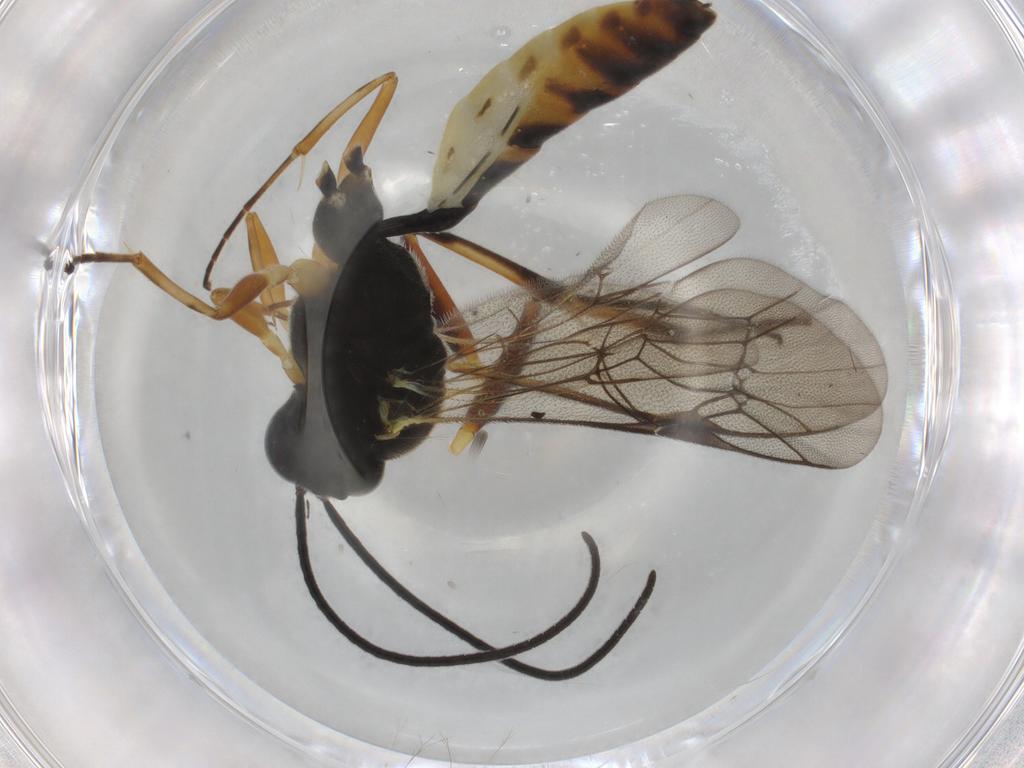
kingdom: Animalia
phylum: Arthropoda
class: Insecta
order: Hymenoptera
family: Ichneumonidae
